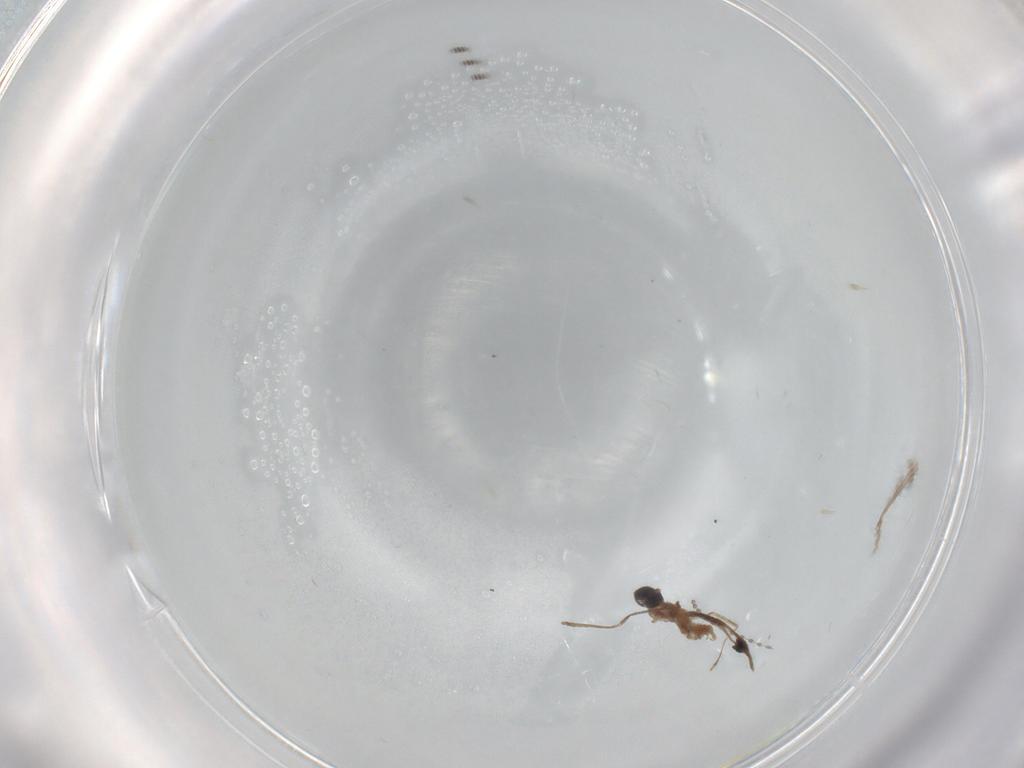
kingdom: Animalia
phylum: Arthropoda
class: Insecta
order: Diptera
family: Cecidomyiidae
